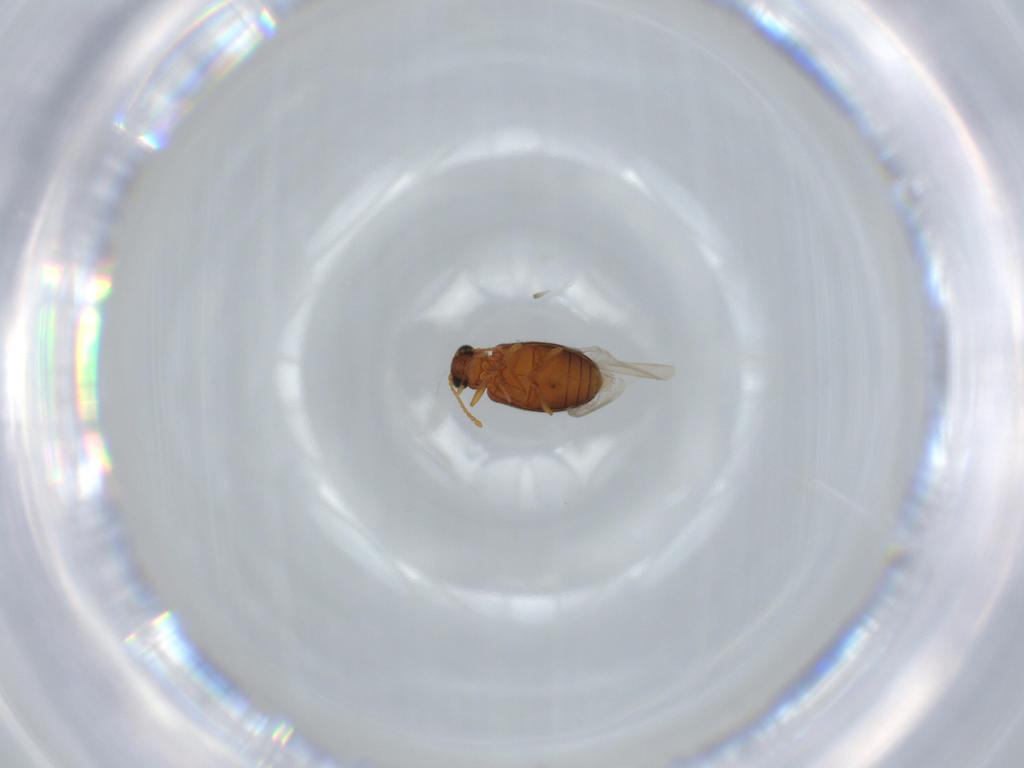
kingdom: Animalia
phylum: Arthropoda
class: Insecta
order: Coleoptera
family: Aderidae
